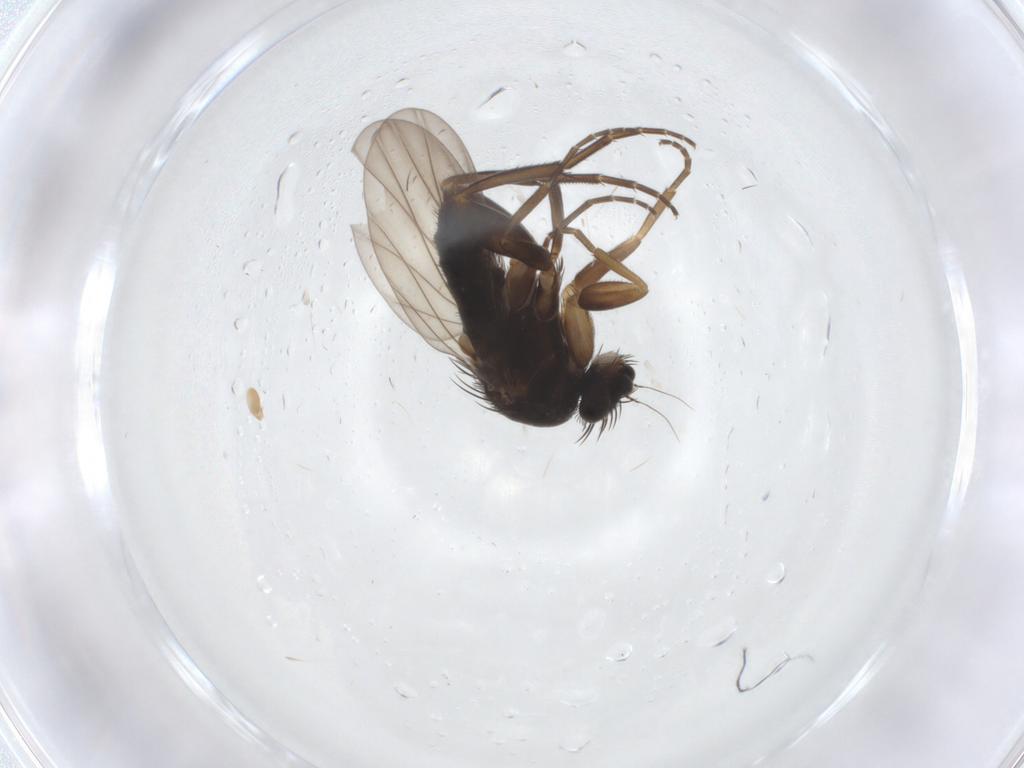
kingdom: Animalia
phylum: Arthropoda
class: Insecta
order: Diptera
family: Phoridae
